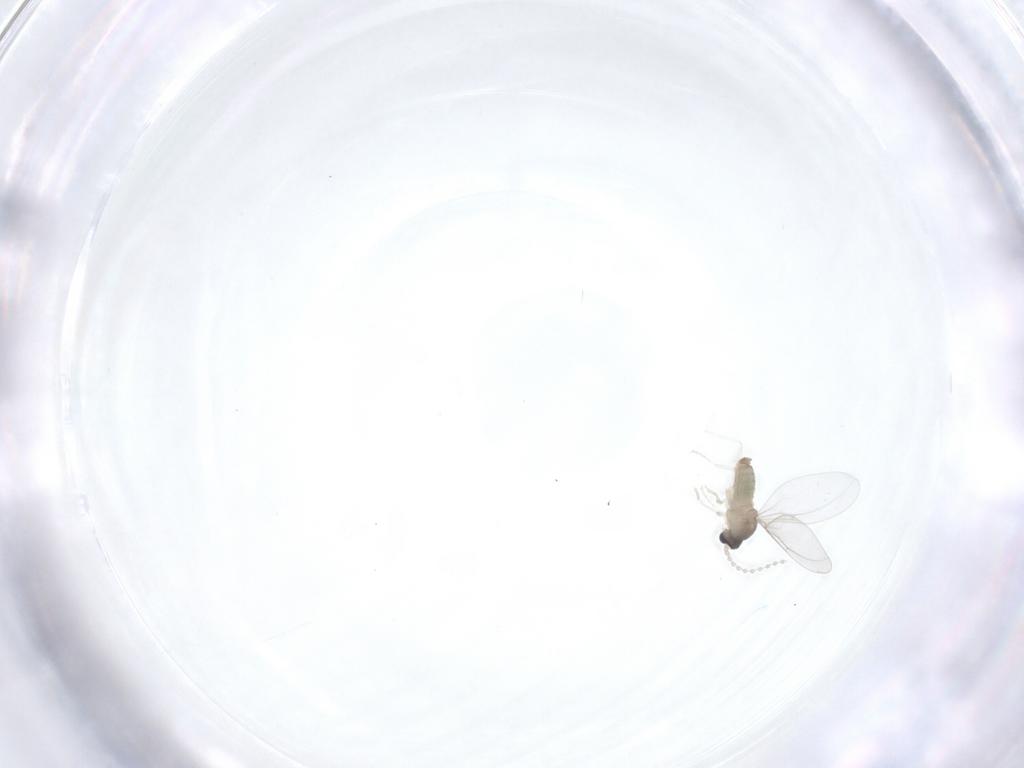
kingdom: Animalia
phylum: Arthropoda
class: Insecta
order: Diptera
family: Cecidomyiidae
